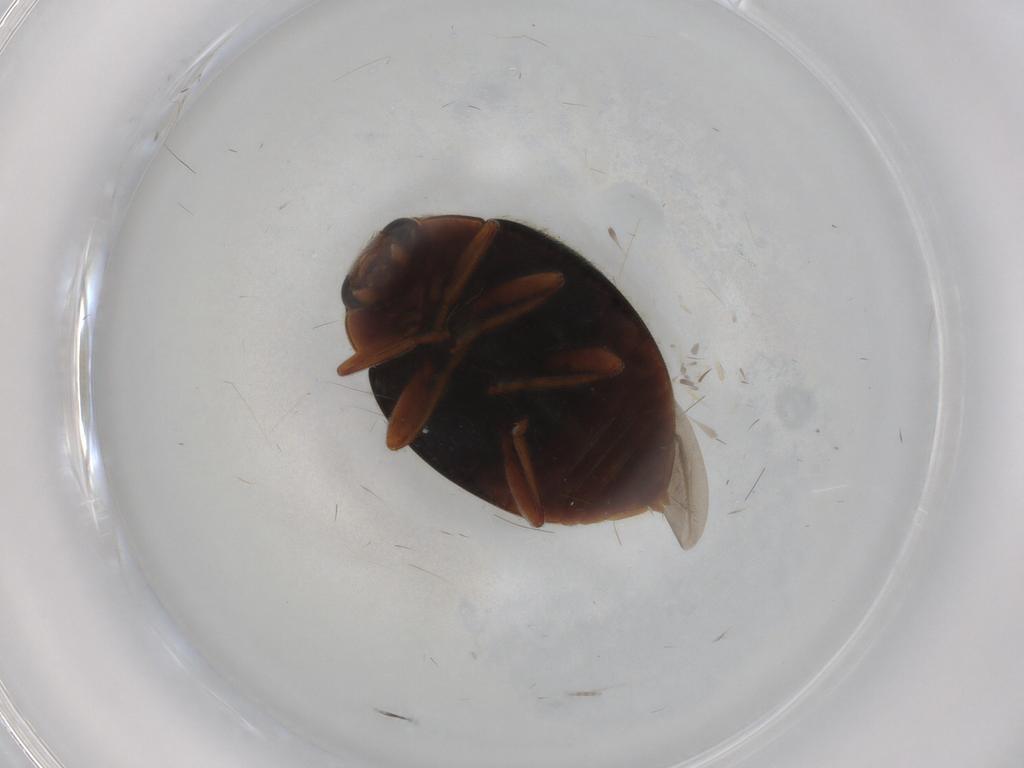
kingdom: Animalia
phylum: Arthropoda
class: Insecta
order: Coleoptera
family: Coccinellidae
